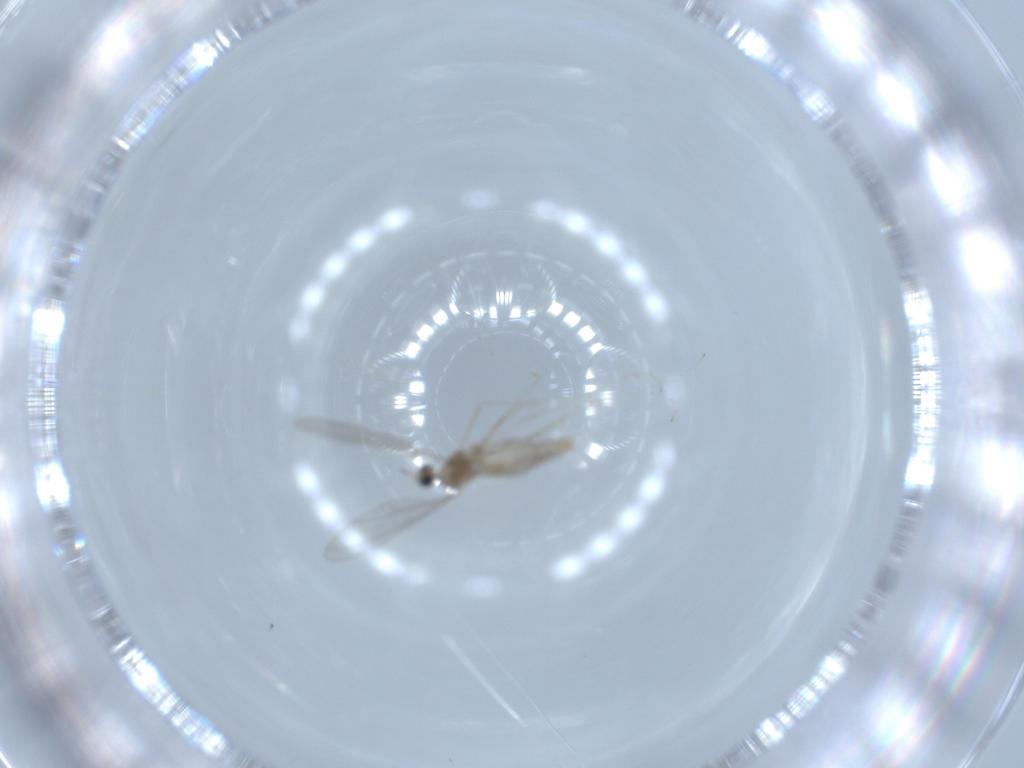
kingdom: Animalia
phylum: Arthropoda
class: Insecta
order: Diptera
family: Cecidomyiidae
